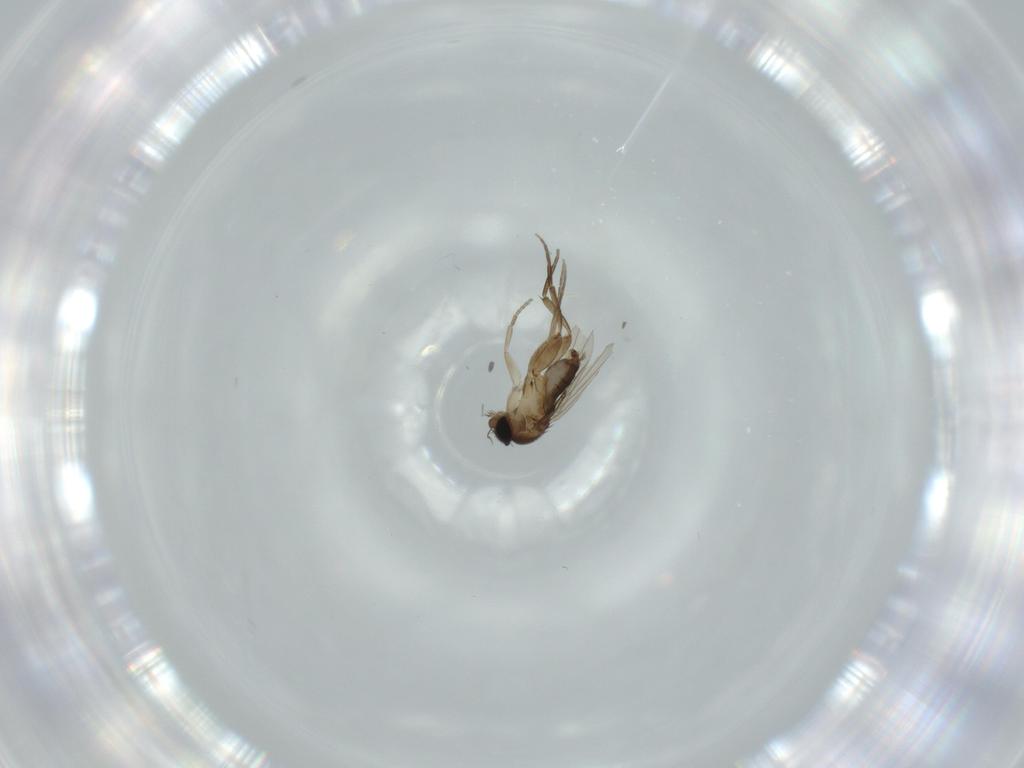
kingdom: Animalia
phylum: Arthropoda
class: Insecta
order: Diptera
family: Phoridae
